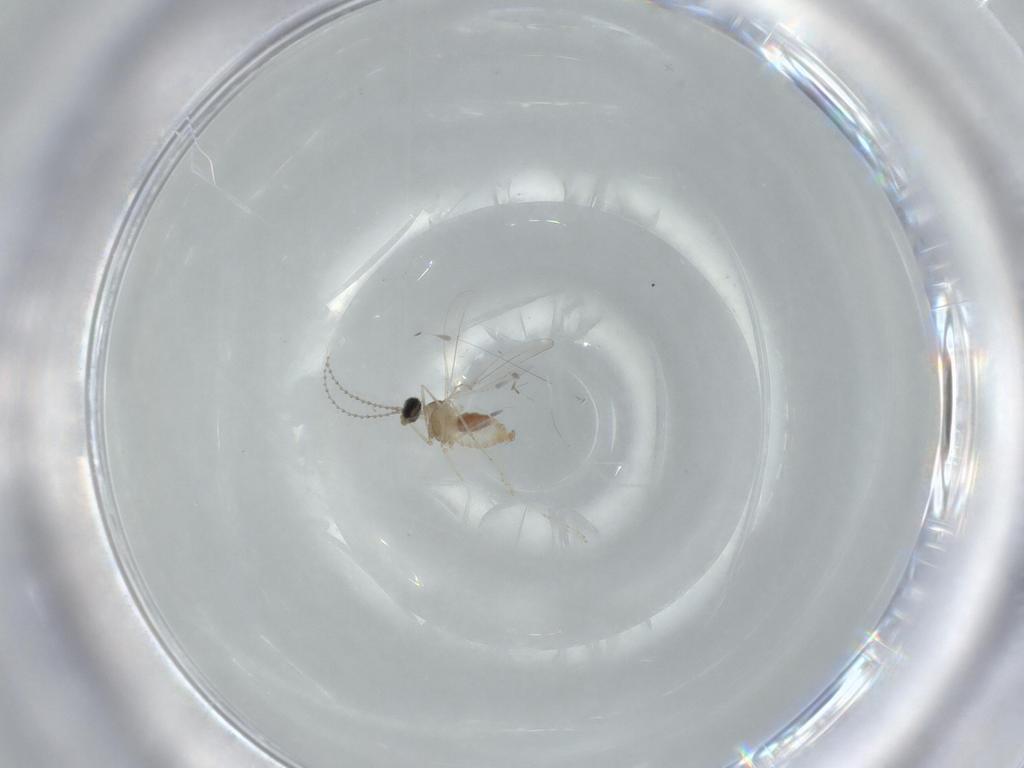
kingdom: Animalia
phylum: Arthropoda
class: Insecta
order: Diptera
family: Cecidomyiidae
